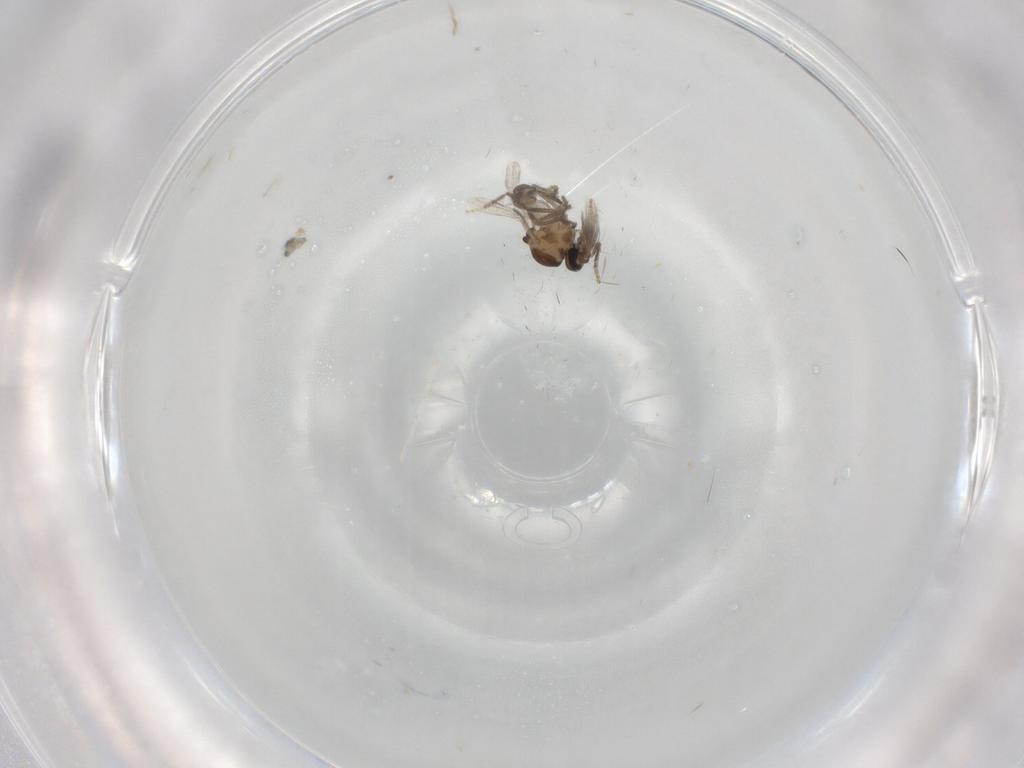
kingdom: Animalia
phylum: Arthropoda
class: Insecta
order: Diptera
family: Ceratopogonidae
